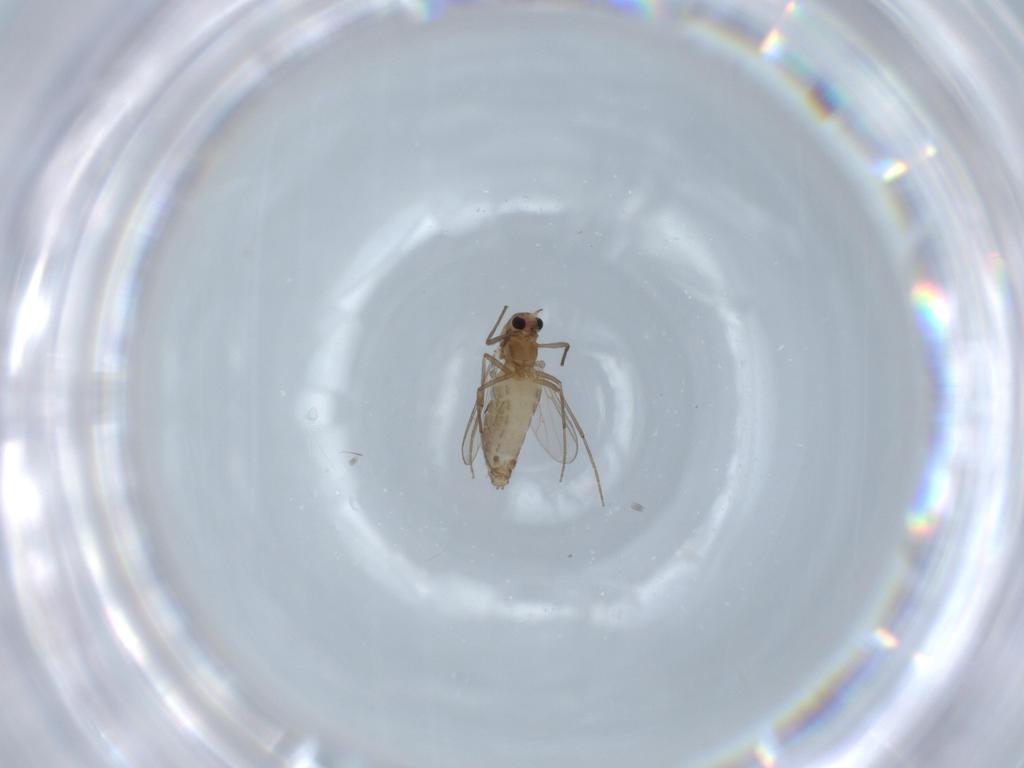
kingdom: Animalia
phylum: Arthropoda
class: Insecta
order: Diptera
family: Chironomidae
